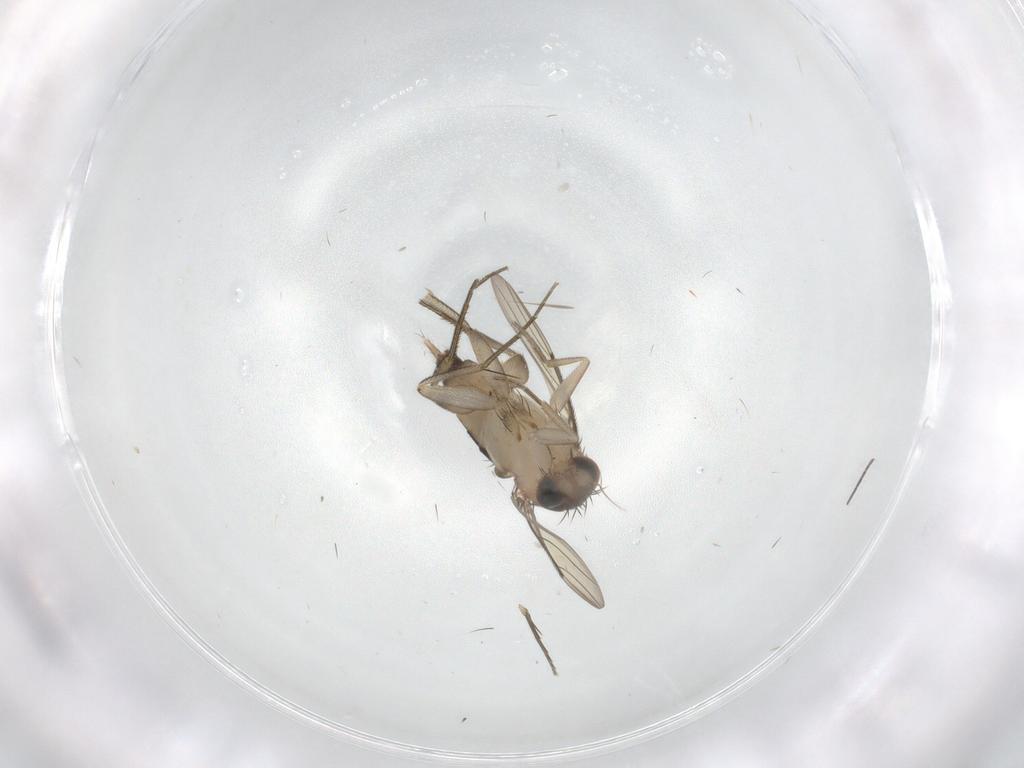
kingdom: Animalia
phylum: Arthropoda
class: Insecta
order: Diptera
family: Phoridae
